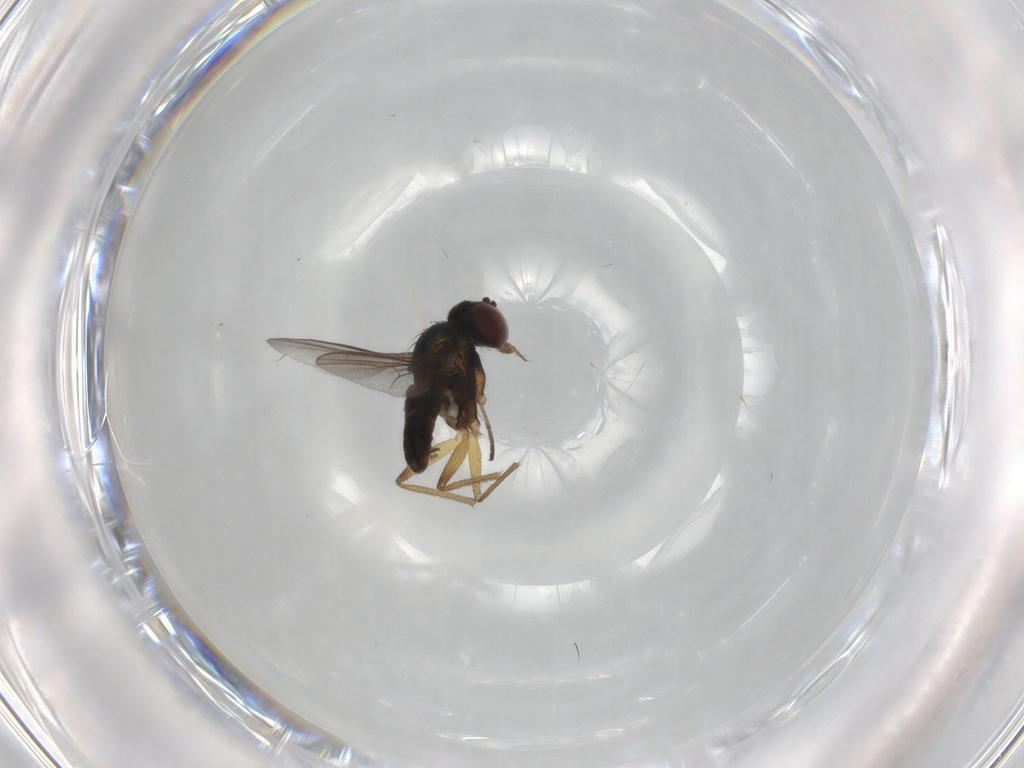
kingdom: Animalia
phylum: Arthropoda
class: Insecta
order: Diptera
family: Dolichopodidae
